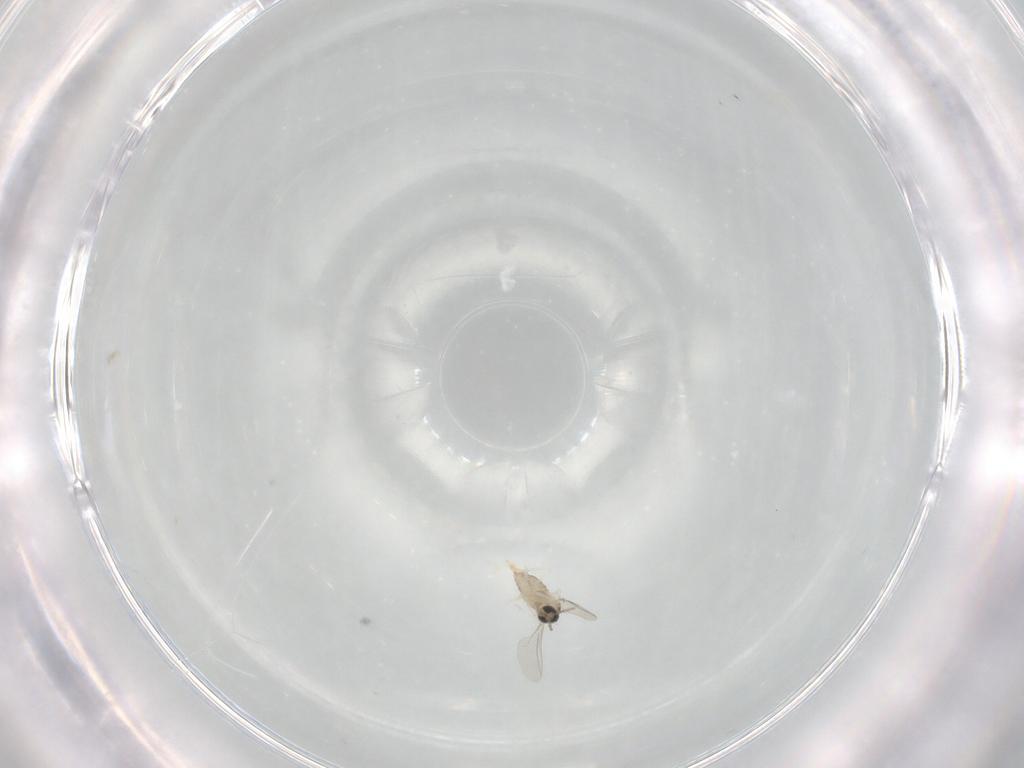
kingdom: Animalia
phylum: Arthropoda
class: Insecta
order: Diptera
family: Cecidomyiidae
